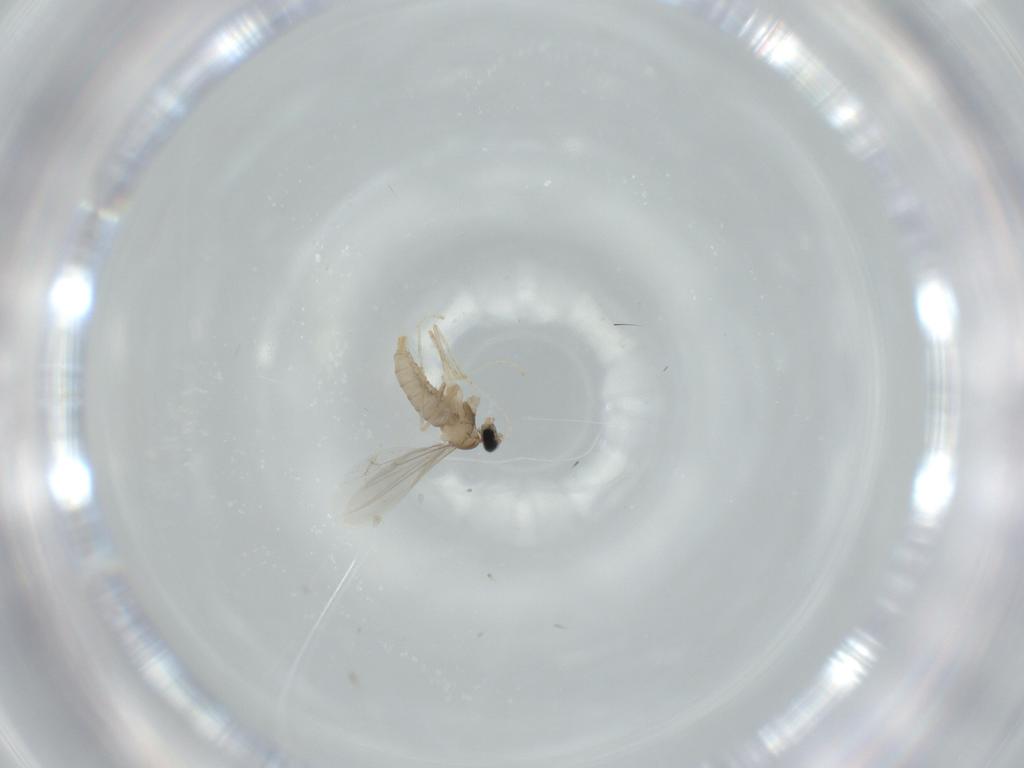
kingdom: Animalia
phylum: Arthropoda
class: Insecta
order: Diptera
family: Cecidomyiidae
